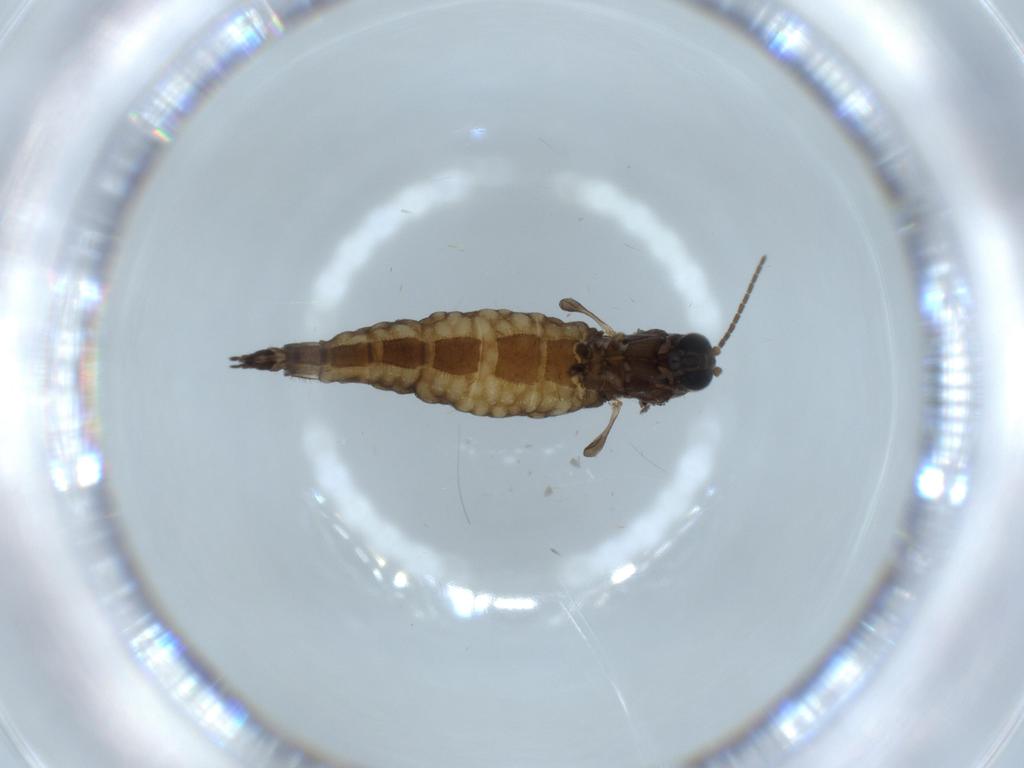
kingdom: Animalia
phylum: Arthropoda
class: Insecta
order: Diptera
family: Sciaridae
